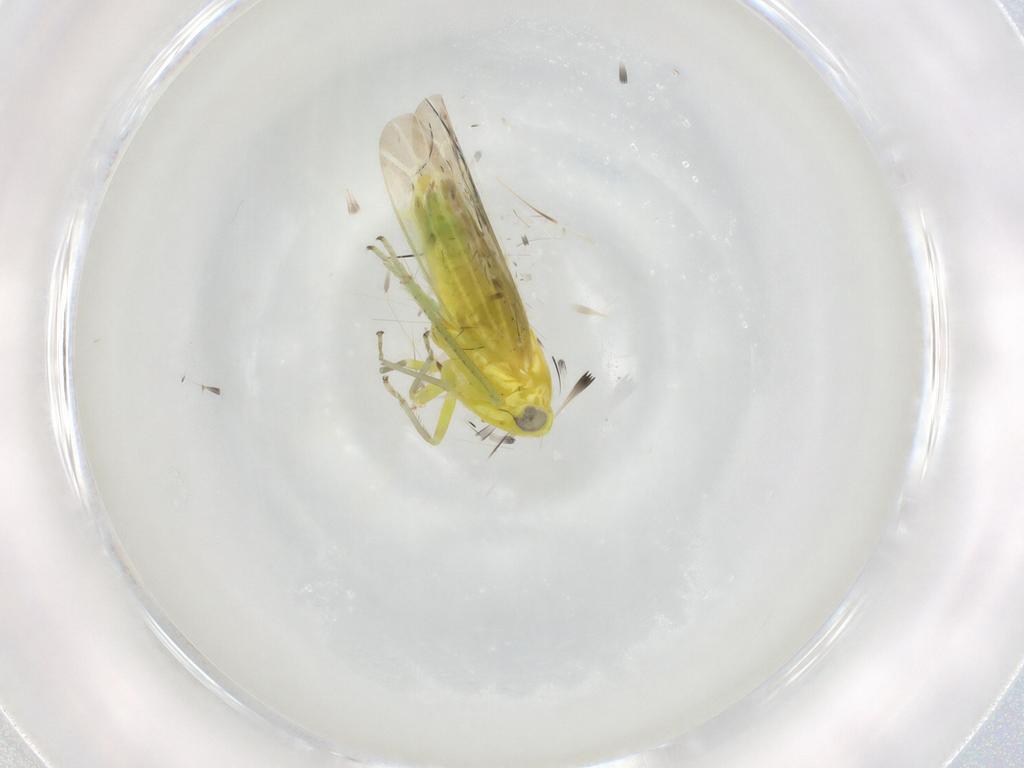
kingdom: Animalia
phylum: Arthropoda
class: Insecta
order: Hemiptera
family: Cicadellidae
